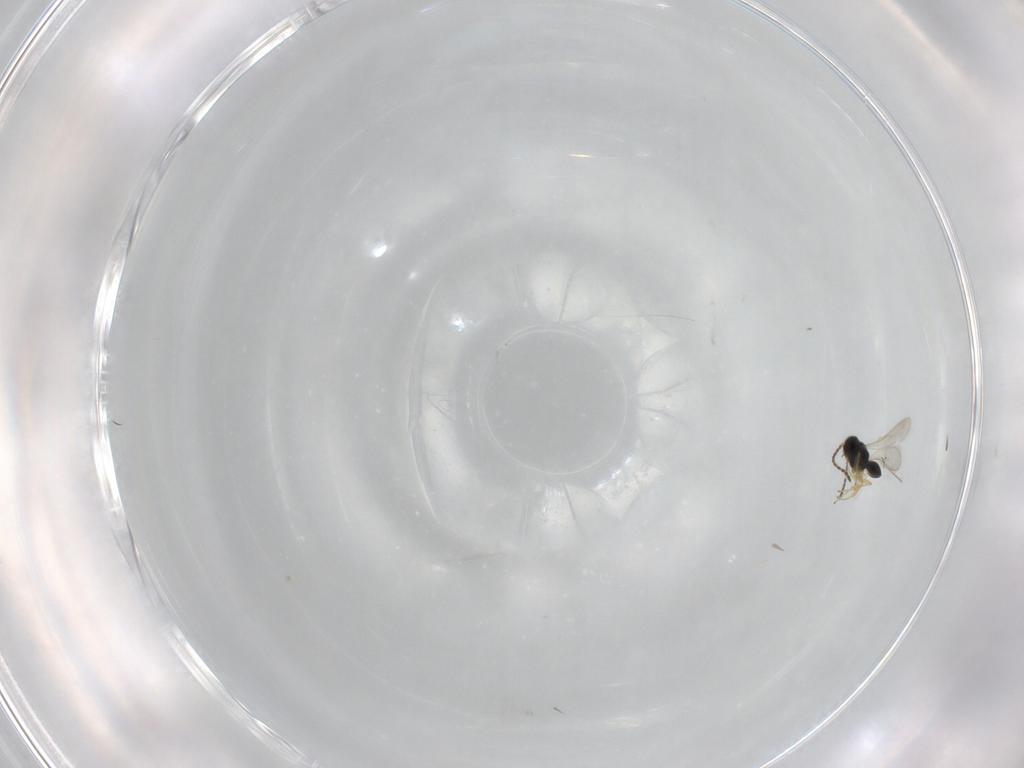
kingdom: Animalia
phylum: Arthropoda
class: Insecta
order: Hymenoptera
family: Scelionidae
